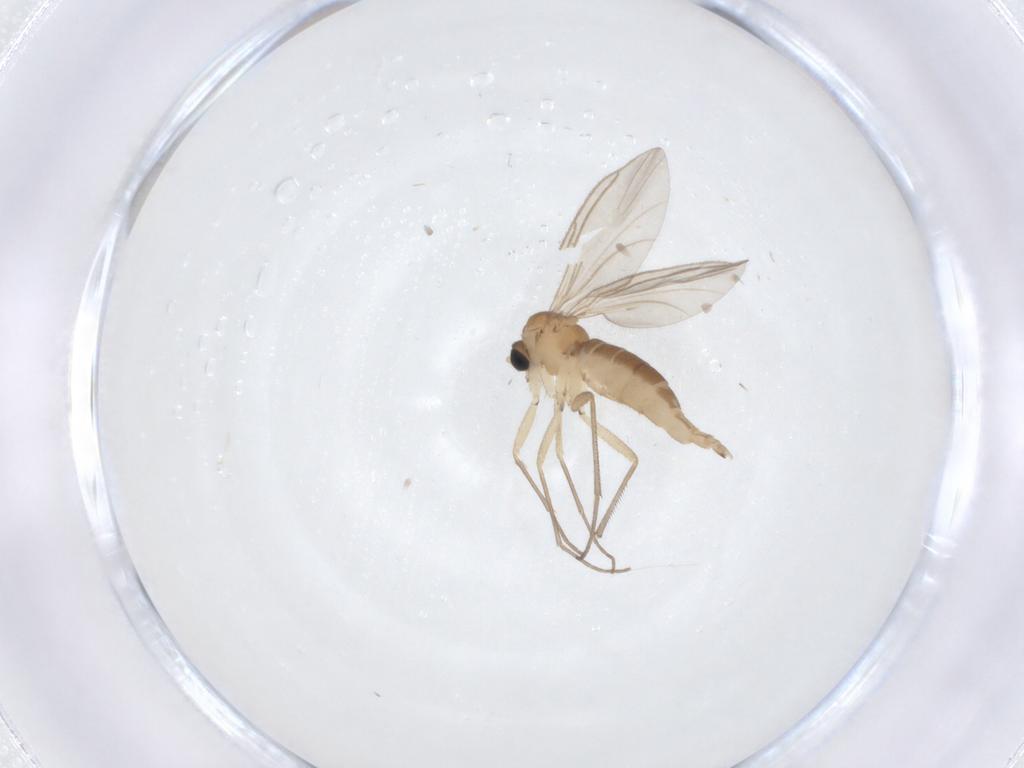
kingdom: Animalia
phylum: Arthropoda
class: Insecta
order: Diptera
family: Sciaridae
